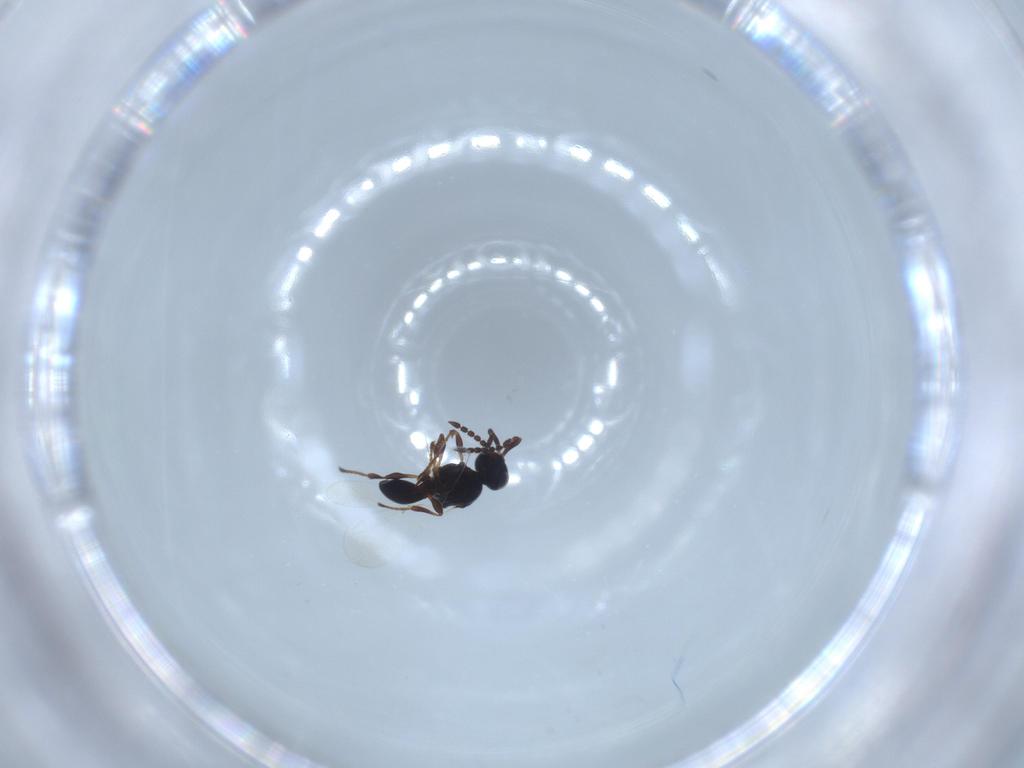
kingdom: Animalia
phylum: Arthropoda
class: Insecta
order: Hymenoptera
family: Platygastridae
